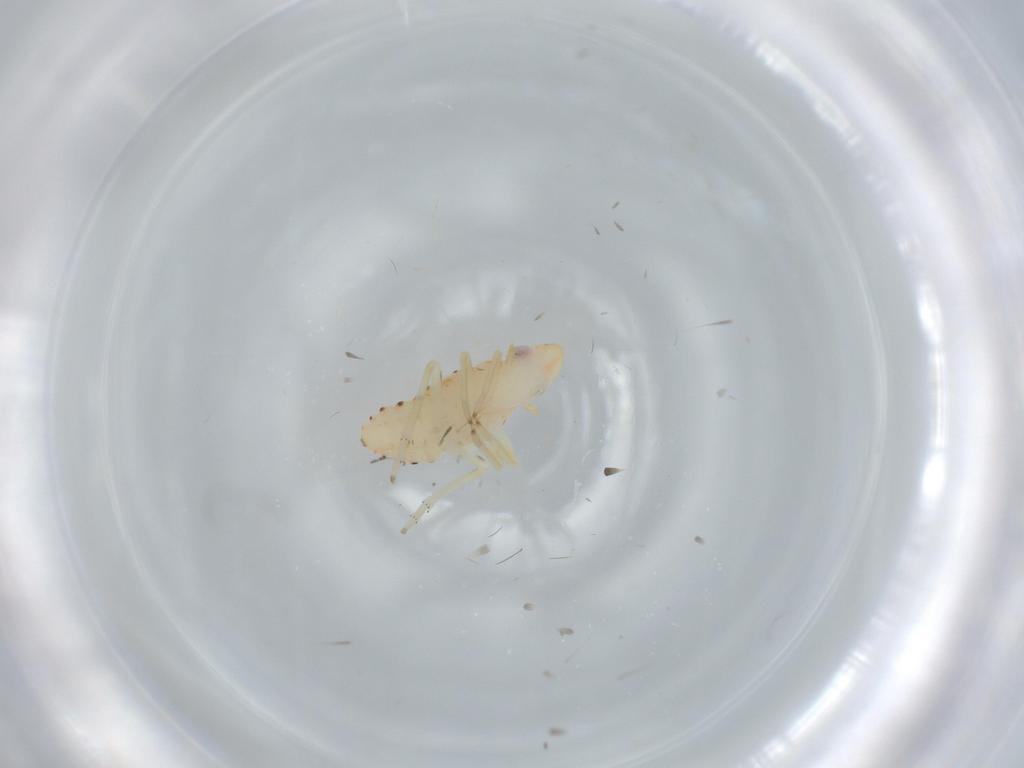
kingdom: Animalia
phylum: Arthropoda
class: Insecta
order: Hemiptera
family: Tropiduchidae
